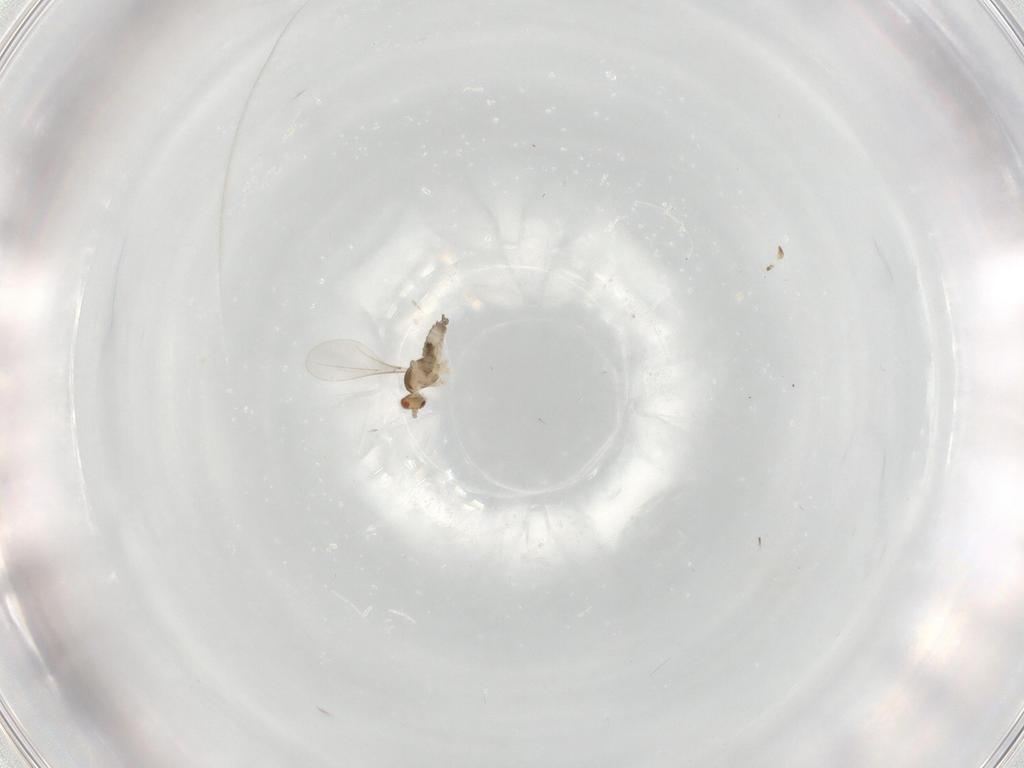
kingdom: Animalia
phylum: Arthropoda
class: Insecta
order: Diptera
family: Cecidomyiidae
